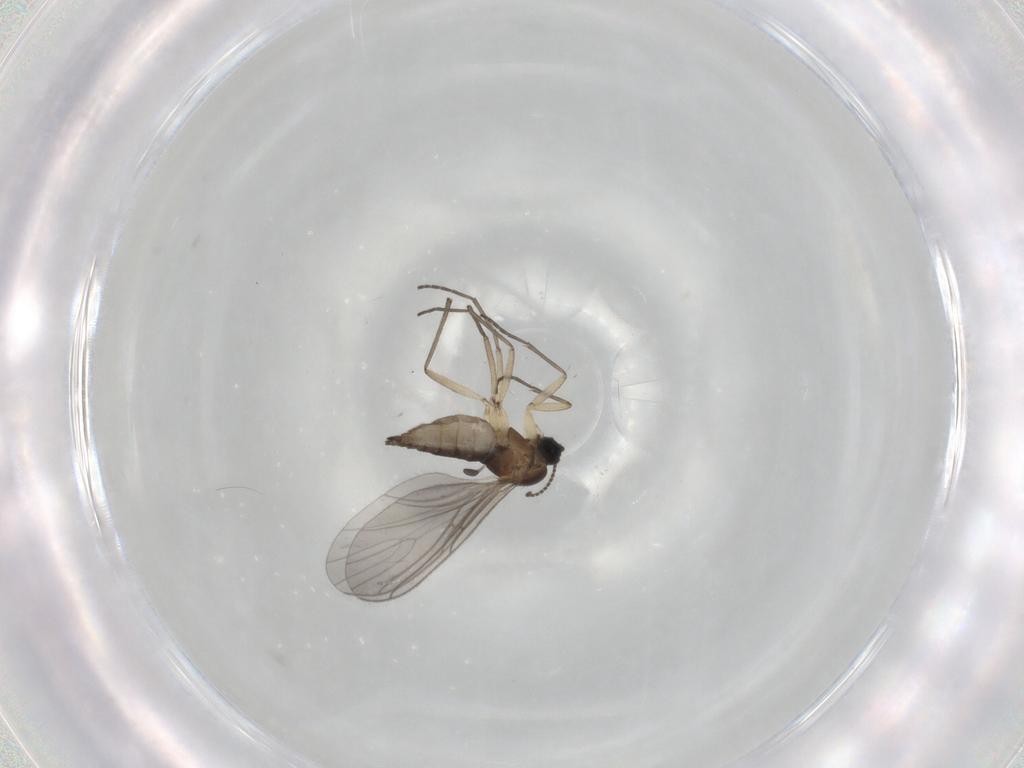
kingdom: Animalia
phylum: Arthropoda
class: Insecta
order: Diptera
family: Sciaridae
